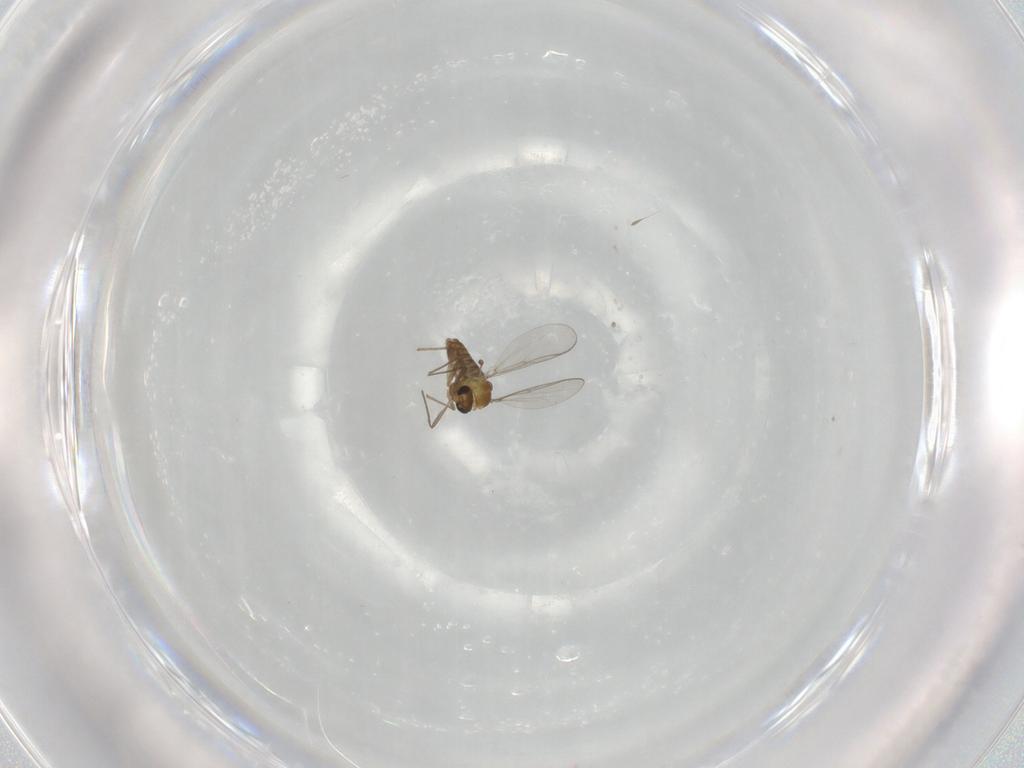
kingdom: Animalia
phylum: Arthropoda
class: Insecta
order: Diptera
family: Chironomidae
